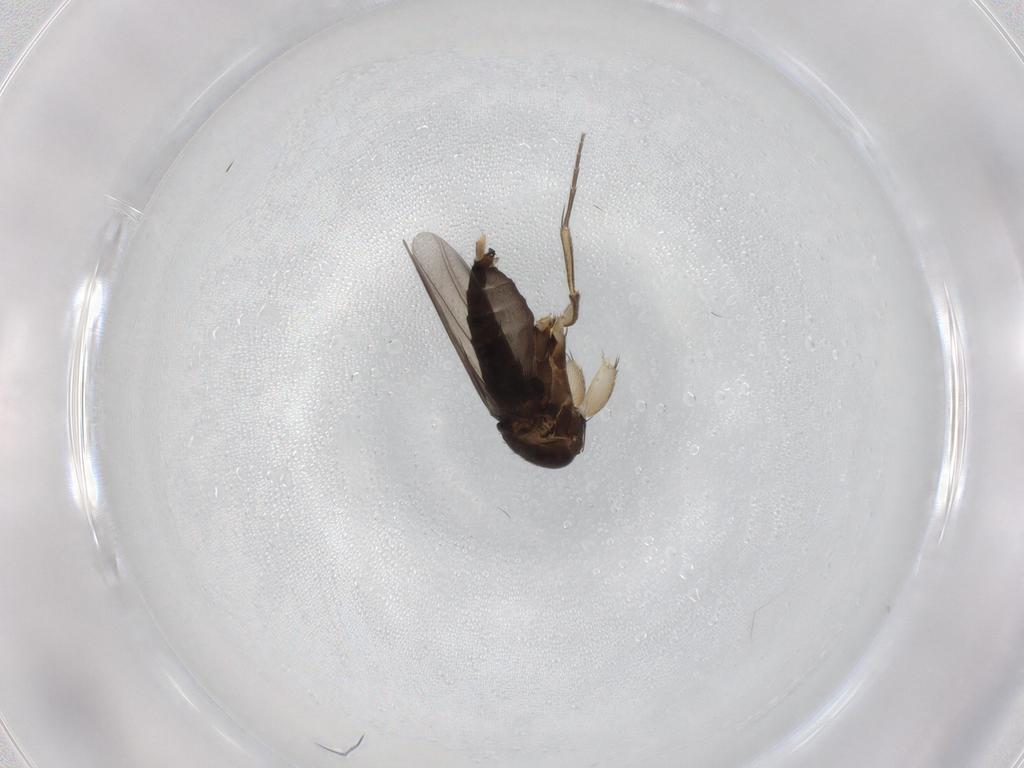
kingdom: Animalia
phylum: Arthropoda
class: Insecta
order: Diptera
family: Phoridae
